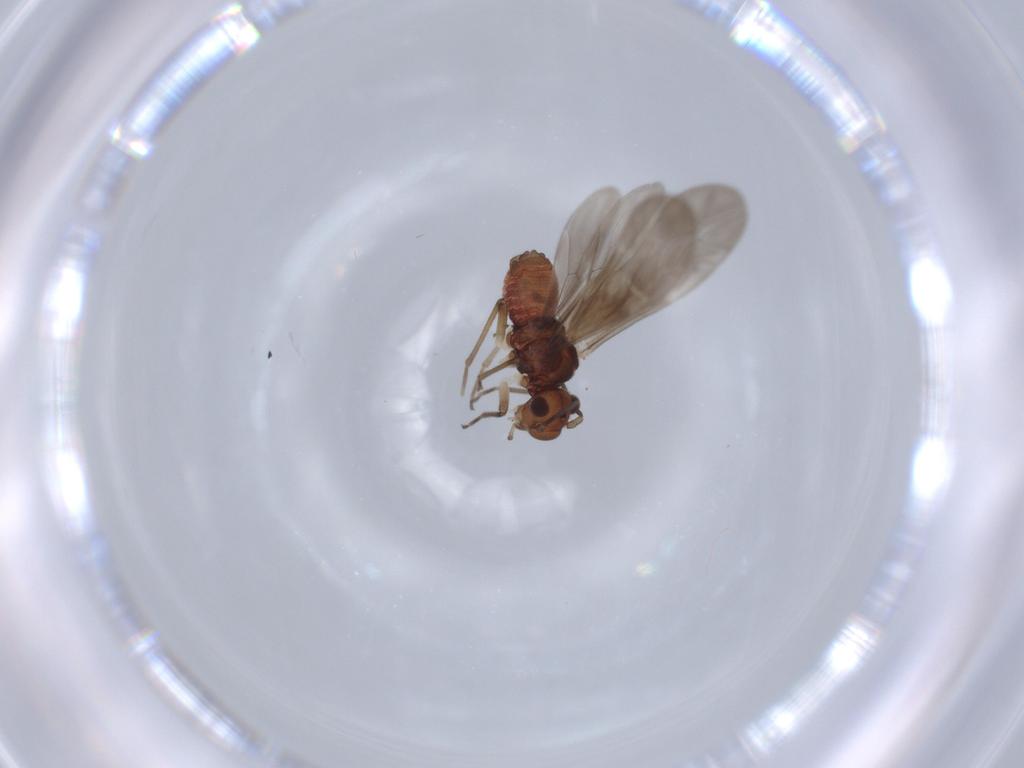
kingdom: Animalia
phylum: Arthropoda
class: Insecta
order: Psocodea
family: Caeciliusidae
